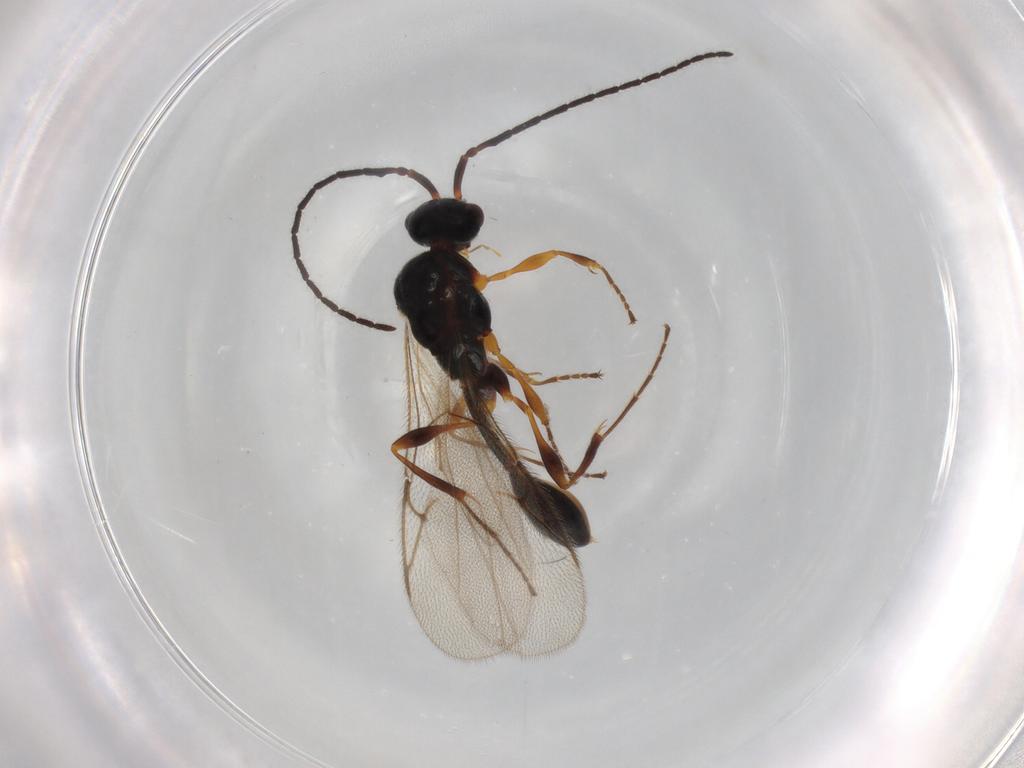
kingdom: Animalia
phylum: Arthropoda
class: Insecta
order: Hymenoptera
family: Diapriidae
